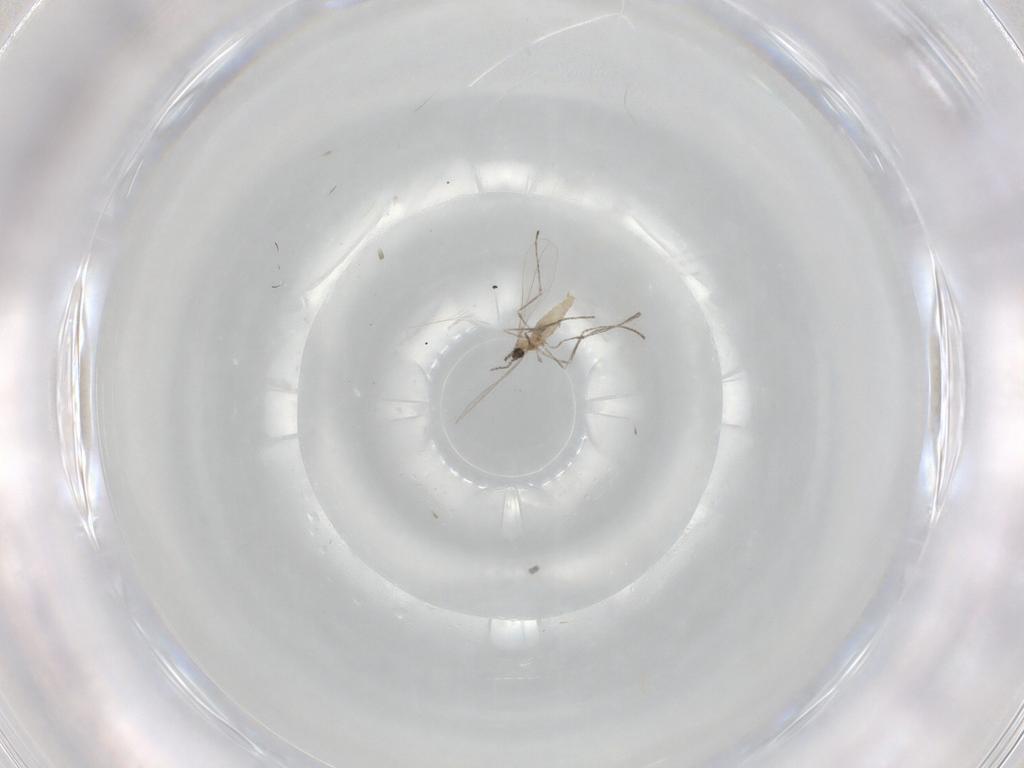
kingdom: Animalia
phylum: Arthropoda
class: Insecta
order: Diptera
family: Cecidomyiidae
